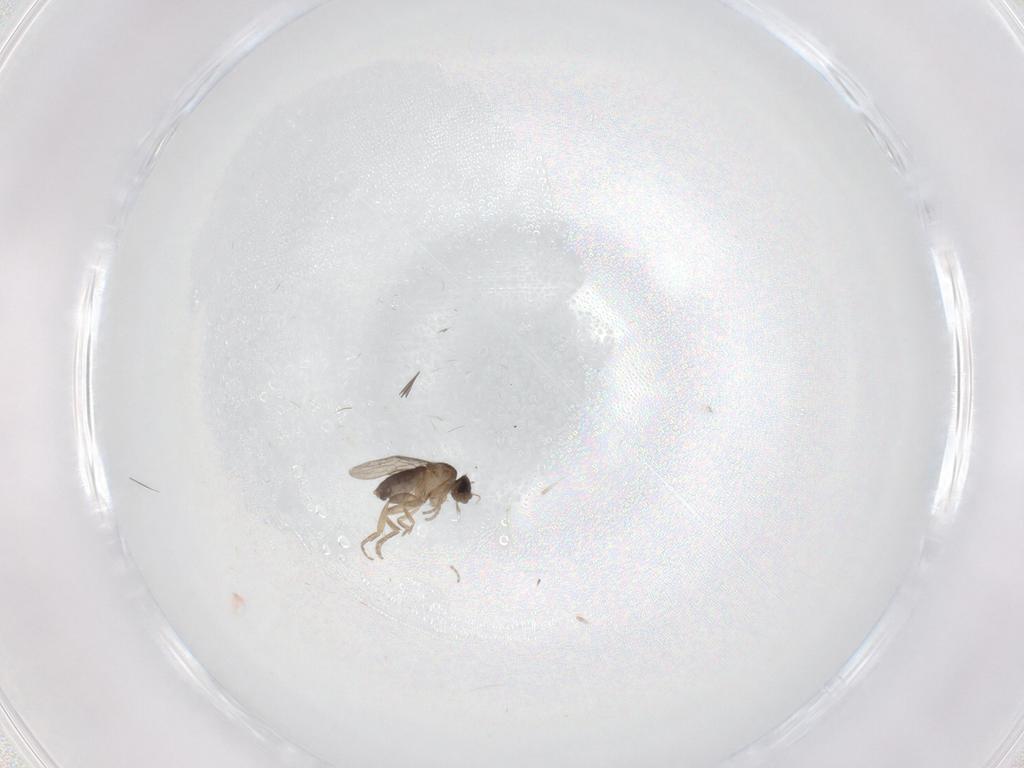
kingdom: Animalia
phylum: Arthropoda
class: Insecta
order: Diptera
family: Phoridae
